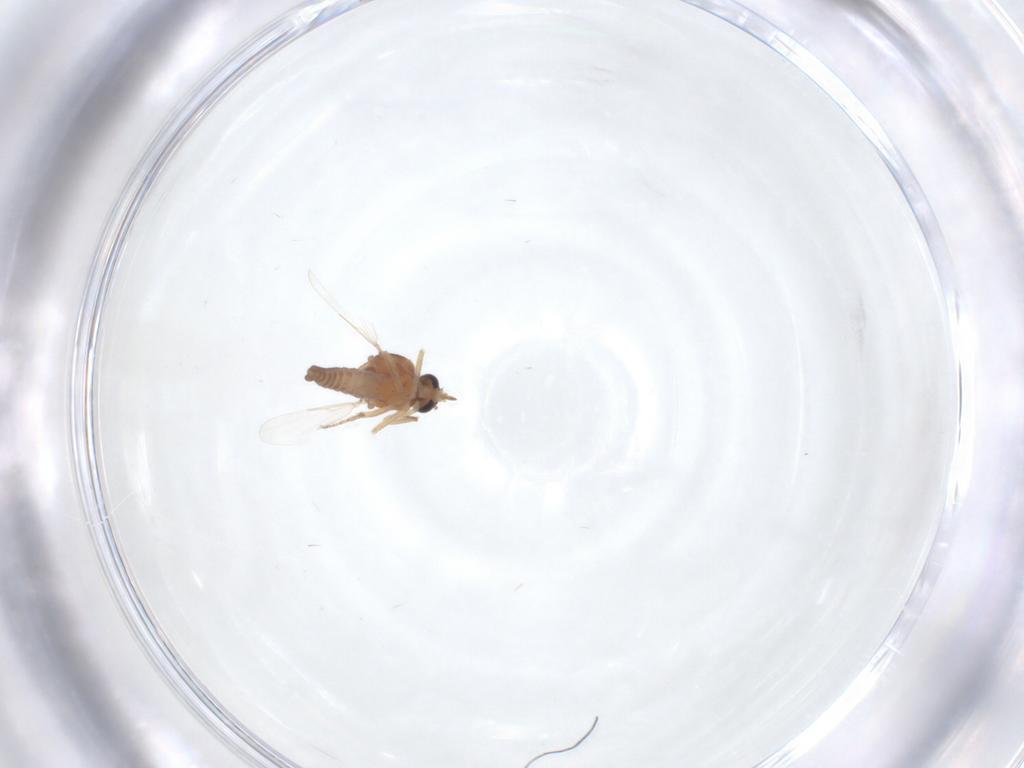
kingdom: Animalia
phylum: Arthropoda
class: Insecta
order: Diptera
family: Ceratopogonidae
